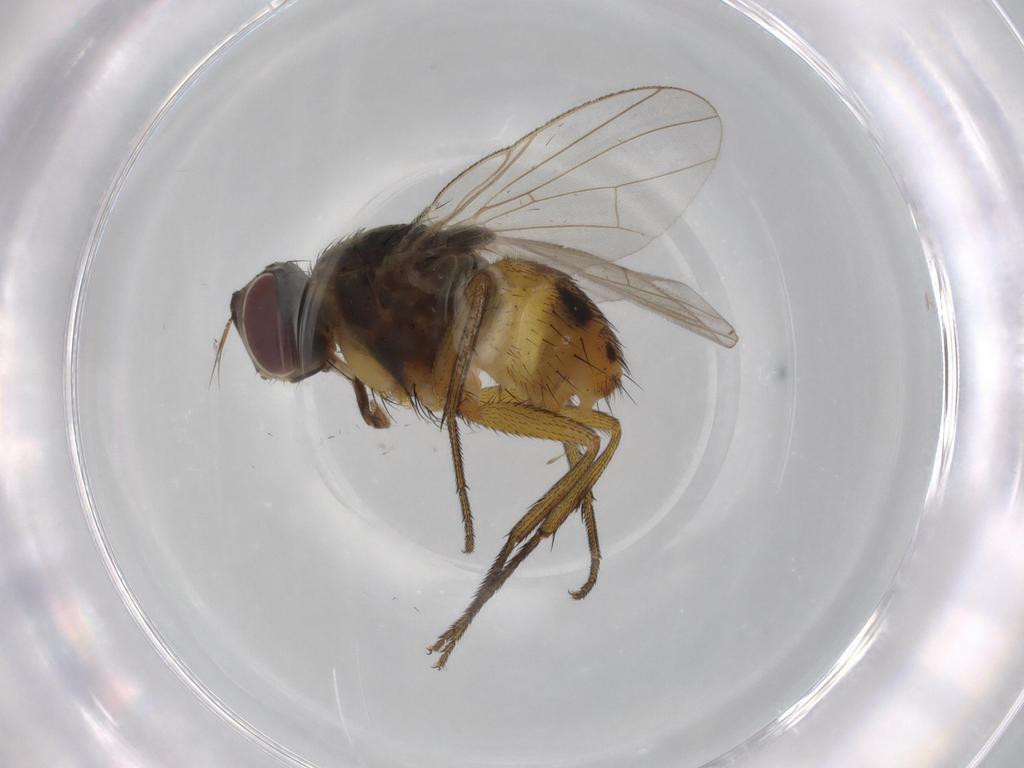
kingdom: Animalia
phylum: Arthropoda
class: Insecta
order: Diptera
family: Muscidae
